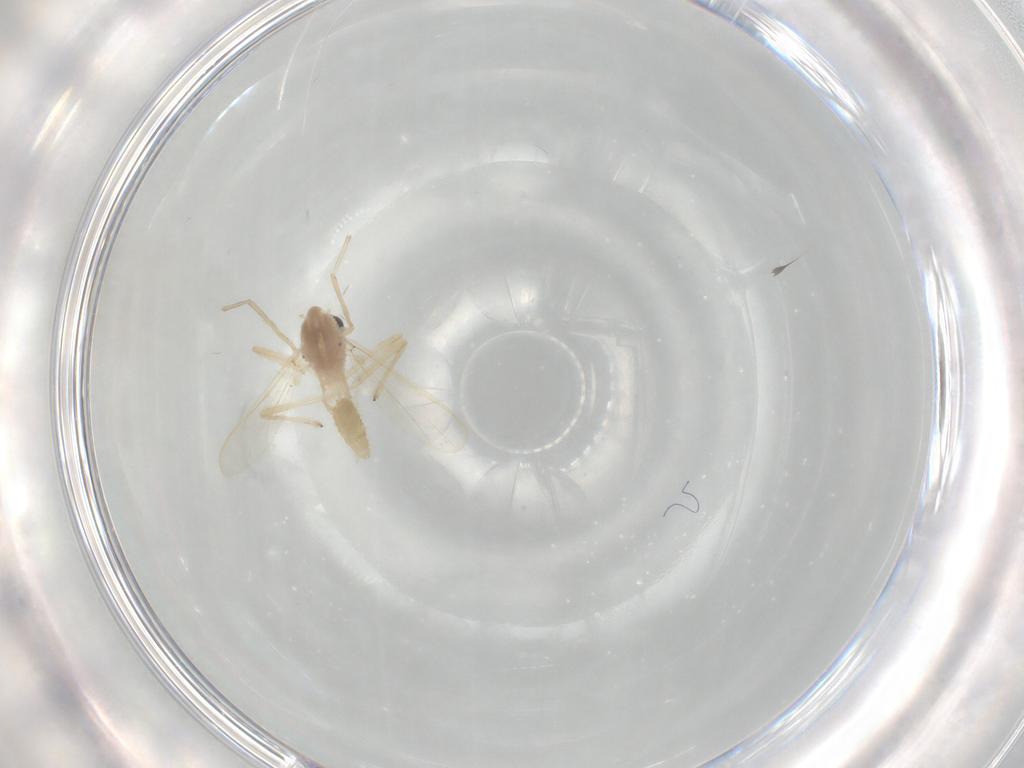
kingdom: Animalia
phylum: Arthropoda
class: Insecta
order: Diptera
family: Chironomidae
